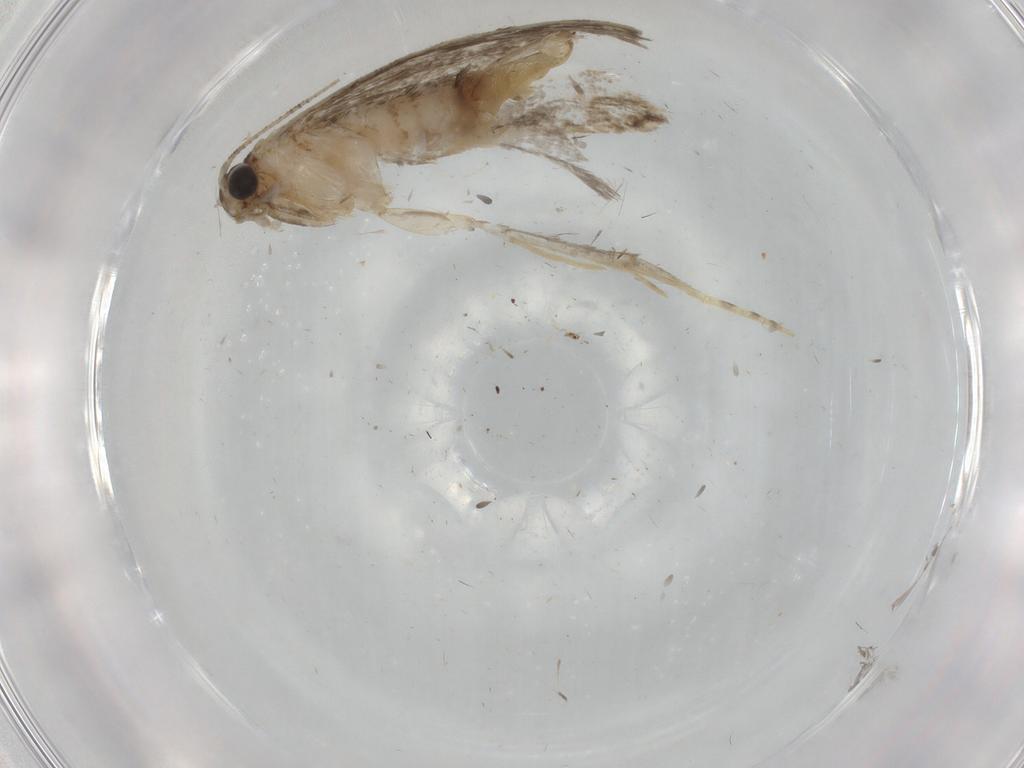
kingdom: Animalia
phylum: Arthropoda
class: Insecta
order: Lepidoptera
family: Tineidae
